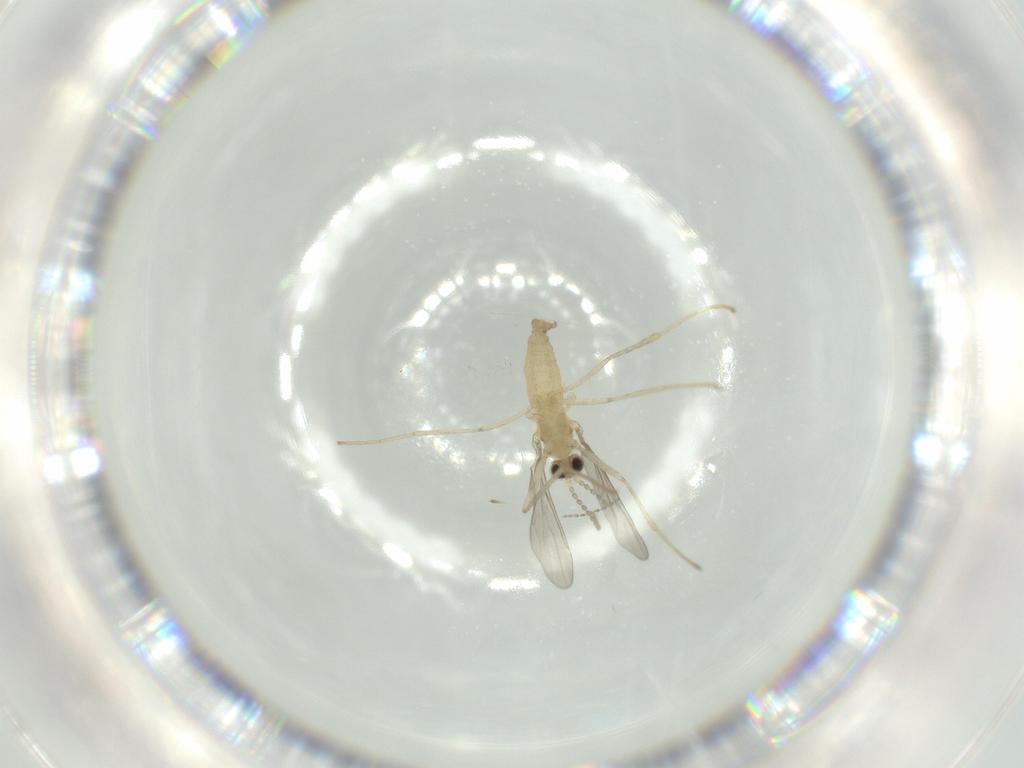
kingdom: Animalia
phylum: Arthropoda
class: Insecta
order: Diptera
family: Cecidomyiidae
